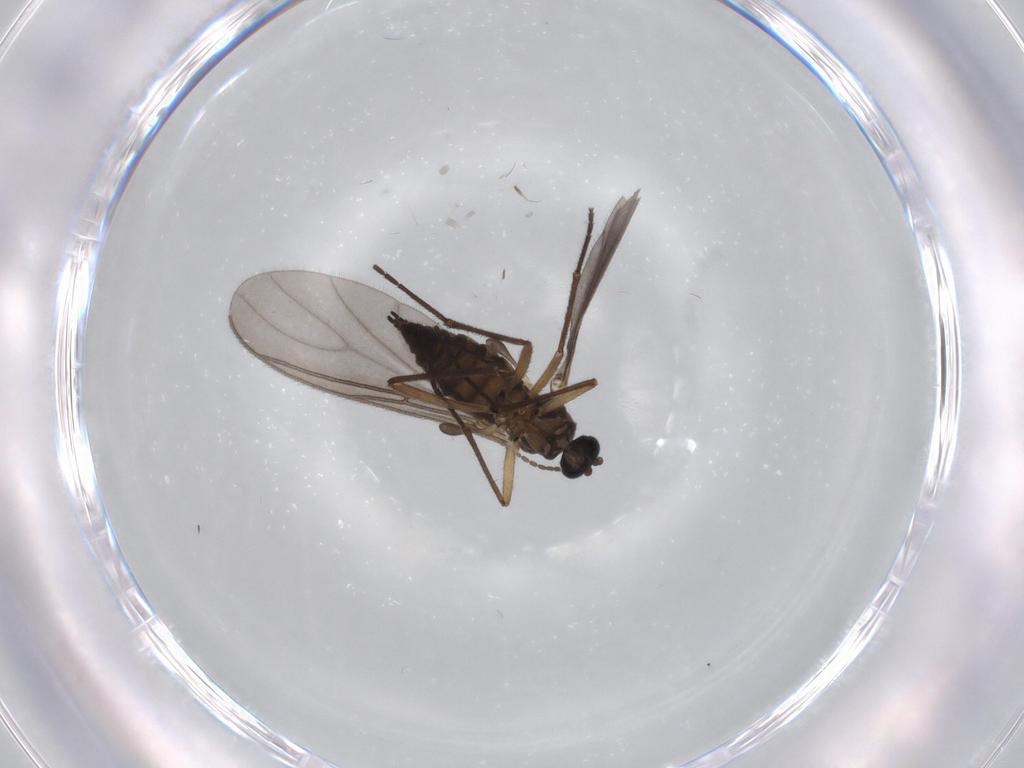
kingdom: Animalia
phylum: Arthropoda
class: Insecta
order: Diptera
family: Sciaridae
